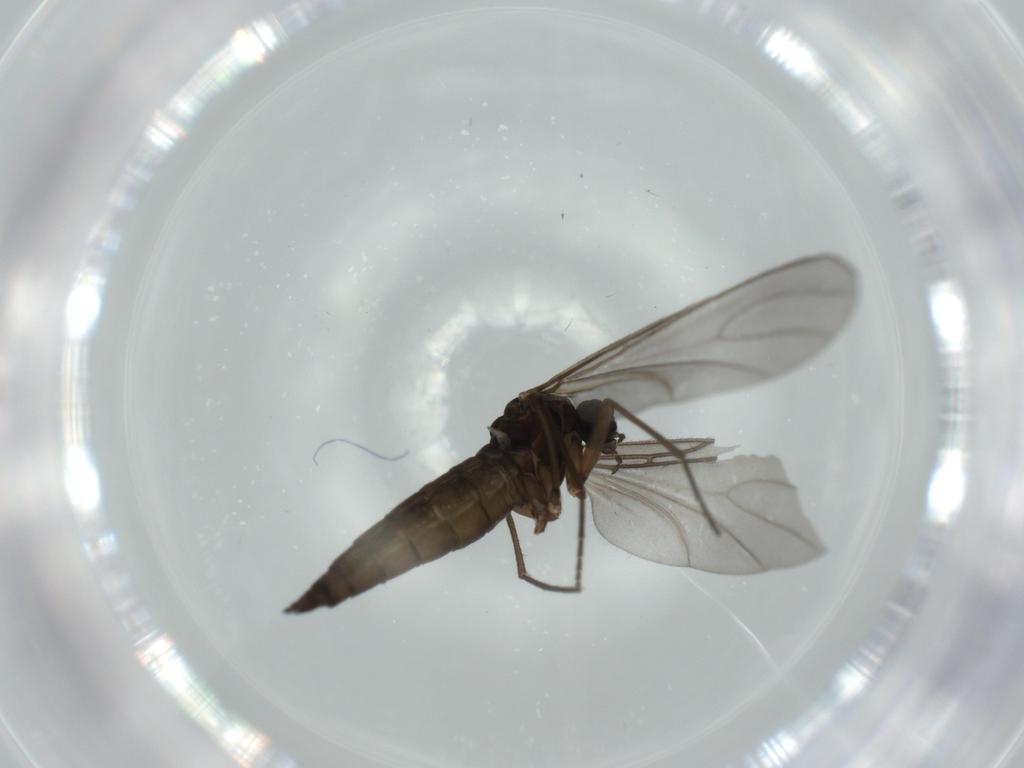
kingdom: Animalia
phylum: Arthropoda
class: Insecta
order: Diptera
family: Sciaridae
